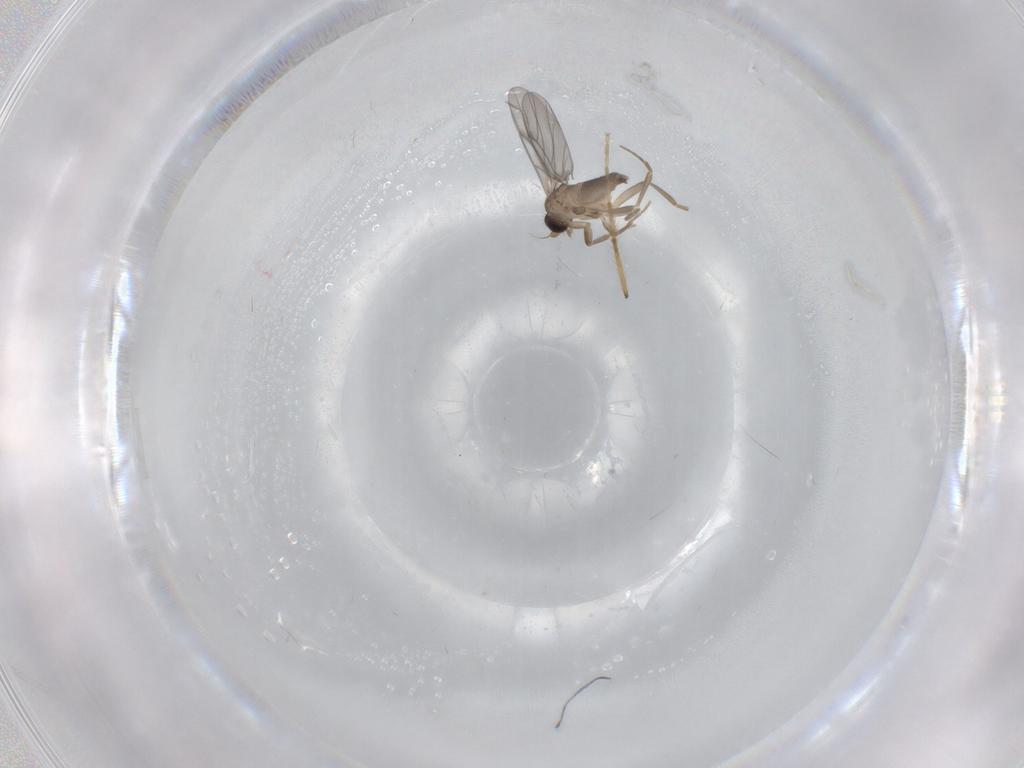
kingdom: Animalia
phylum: Arthropoda
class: Insecta
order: Diptera
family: Chironomidae
